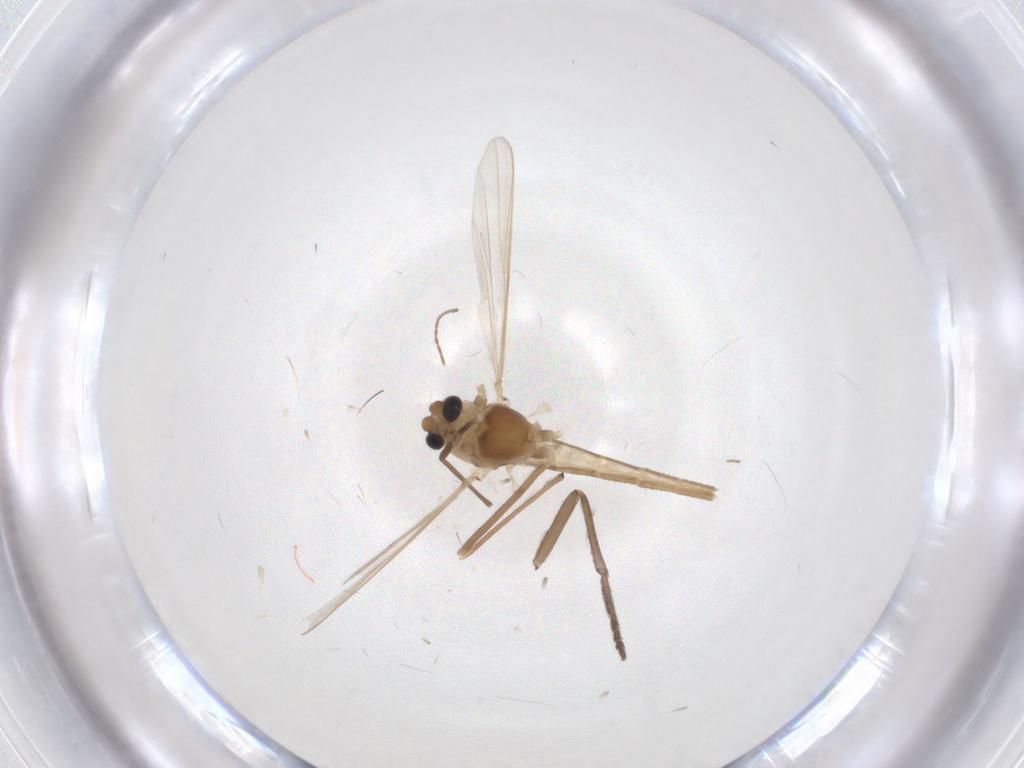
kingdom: Animalia
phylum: Arthropoda
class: Insecta
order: Diptera
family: Chironomidae
